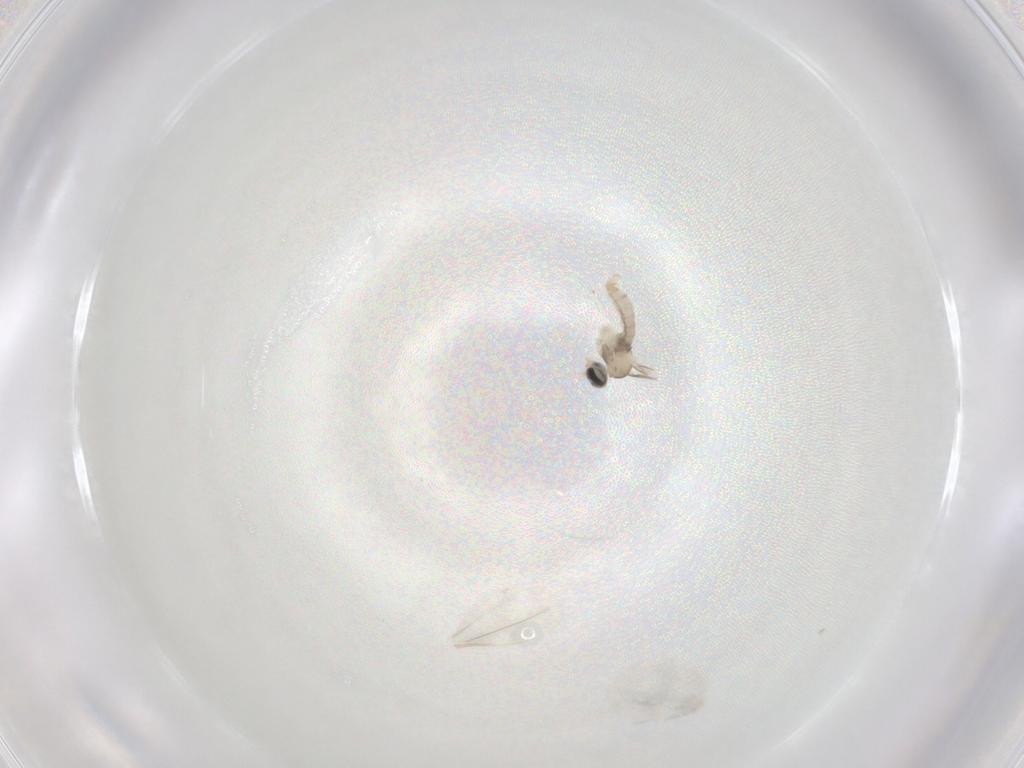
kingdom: Animalia
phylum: Arthropoda
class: Insecta
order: Diptera
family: Cecidomyiidae
